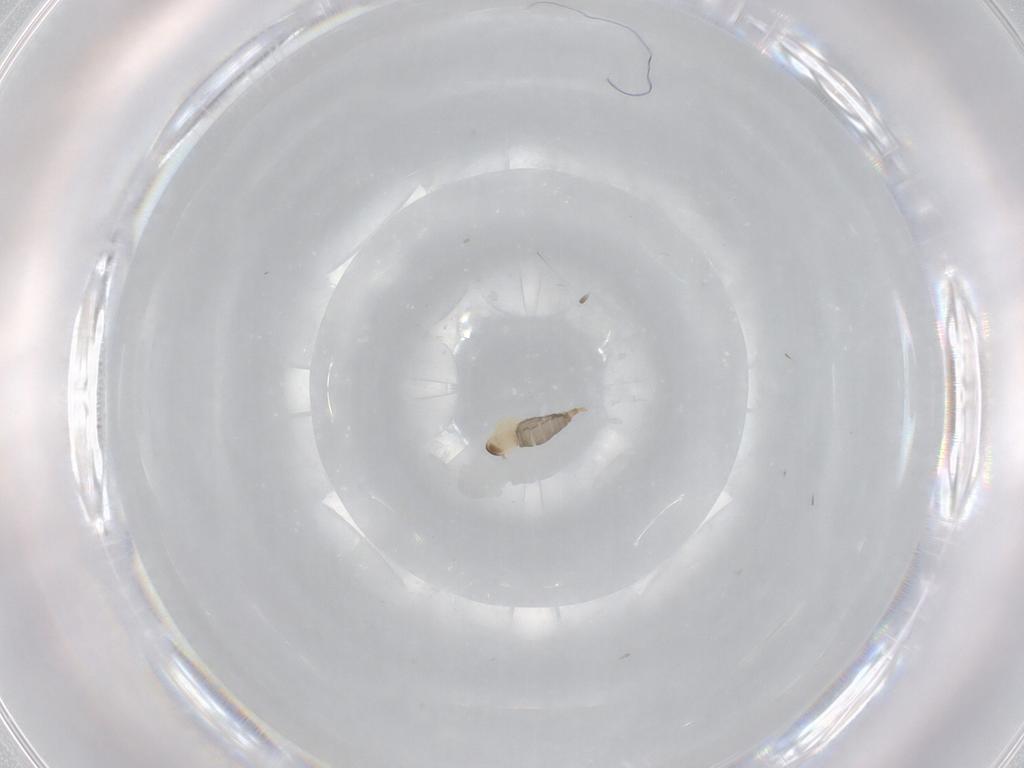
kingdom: Animalia
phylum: Arthropoda
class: Insecta
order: Diptera
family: Cecidomyiidae
